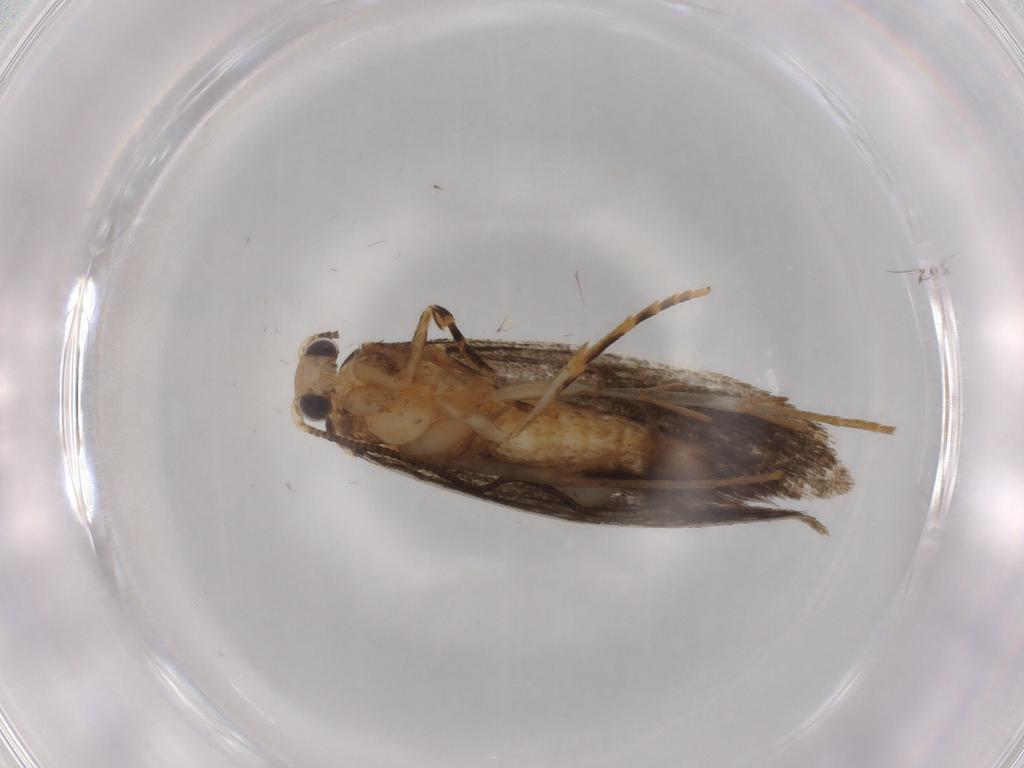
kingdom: Animalia
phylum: Arthropoda
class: Insecta
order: Lepidoptera
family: Tineidae
